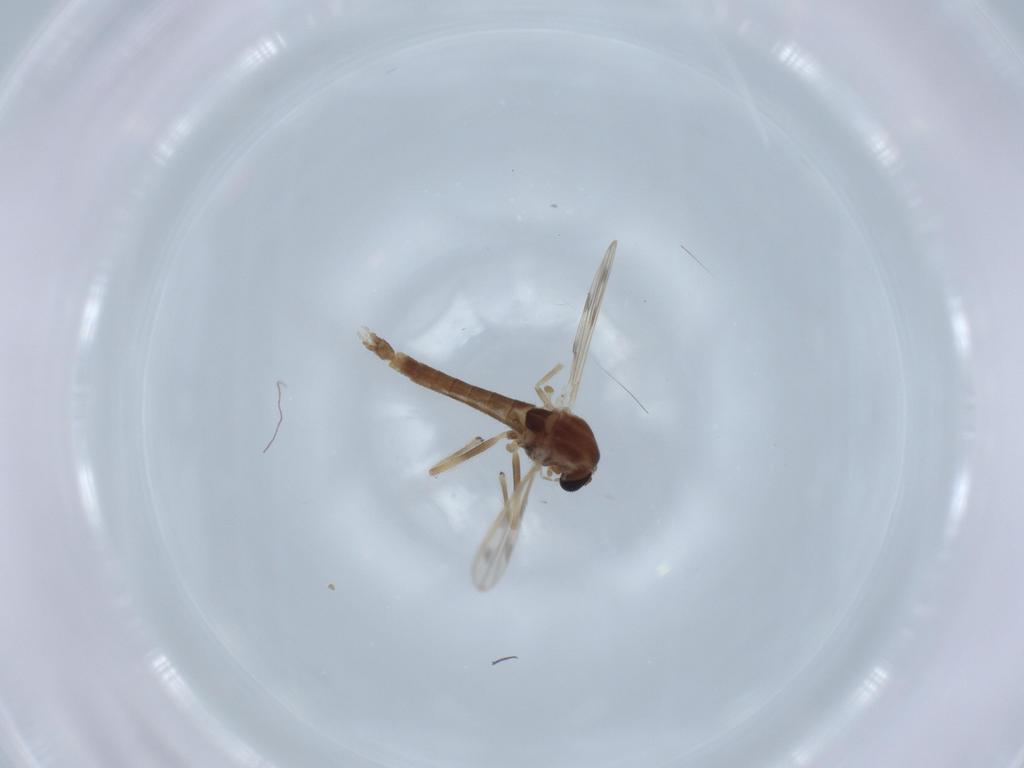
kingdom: Animalia
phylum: Arthropoda
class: Insecta
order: Diptera
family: Chironomidae
